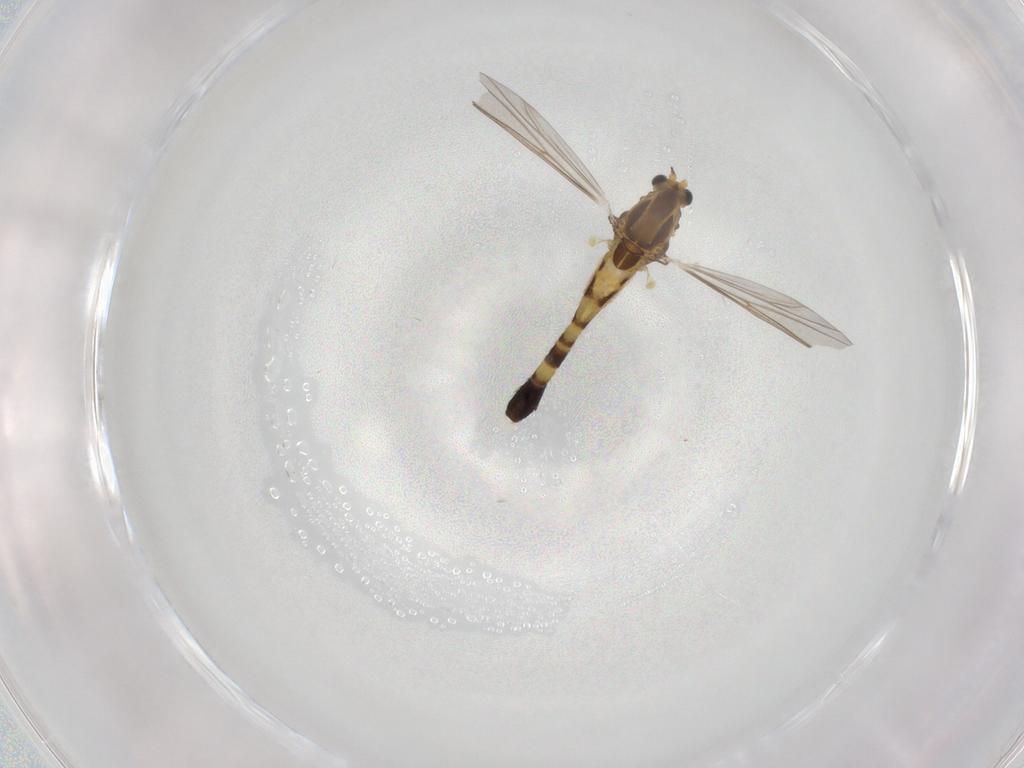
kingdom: Animalia
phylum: Arthropoda
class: Insecta
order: Diptera
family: Chironomidae
